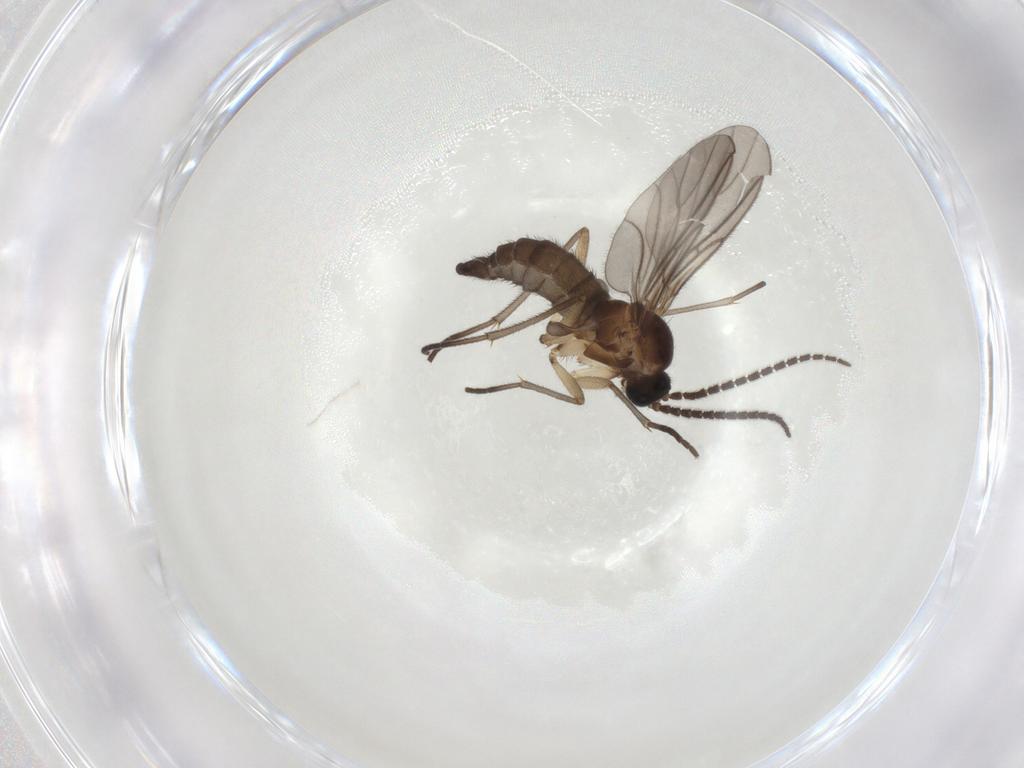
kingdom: Animalia
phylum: Arthropoda
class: Insecta
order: Diptera
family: Sciaridae
